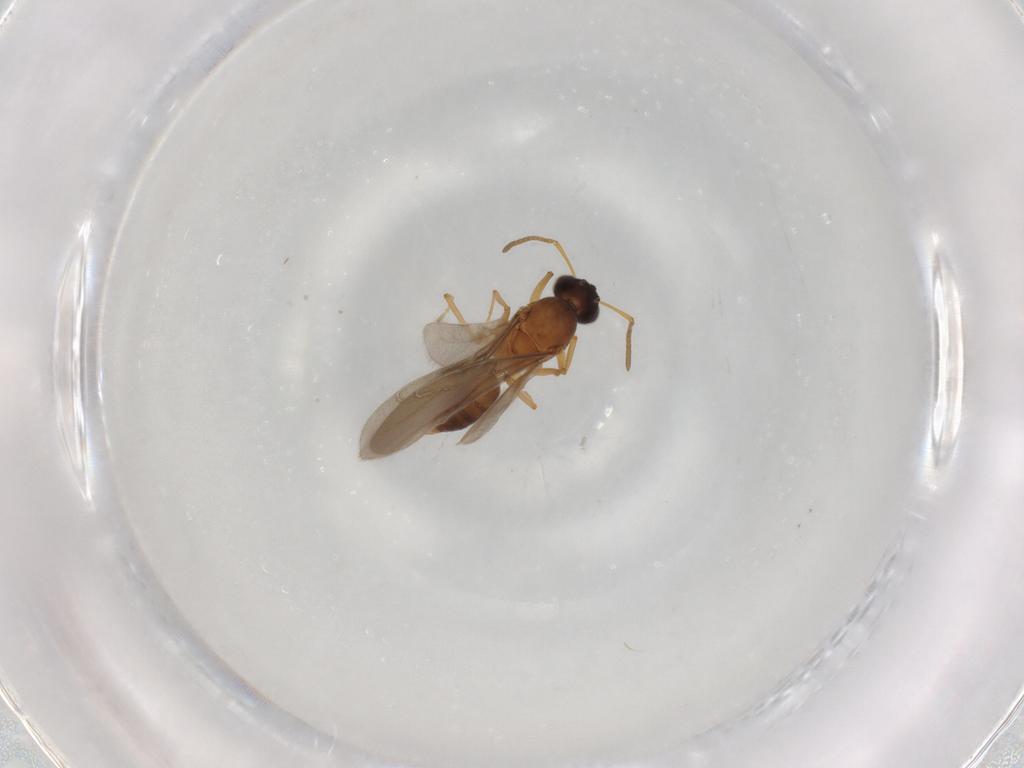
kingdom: Animalia
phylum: Arthropoda
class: Insecta
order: Hymenoptera
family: Formicidae
